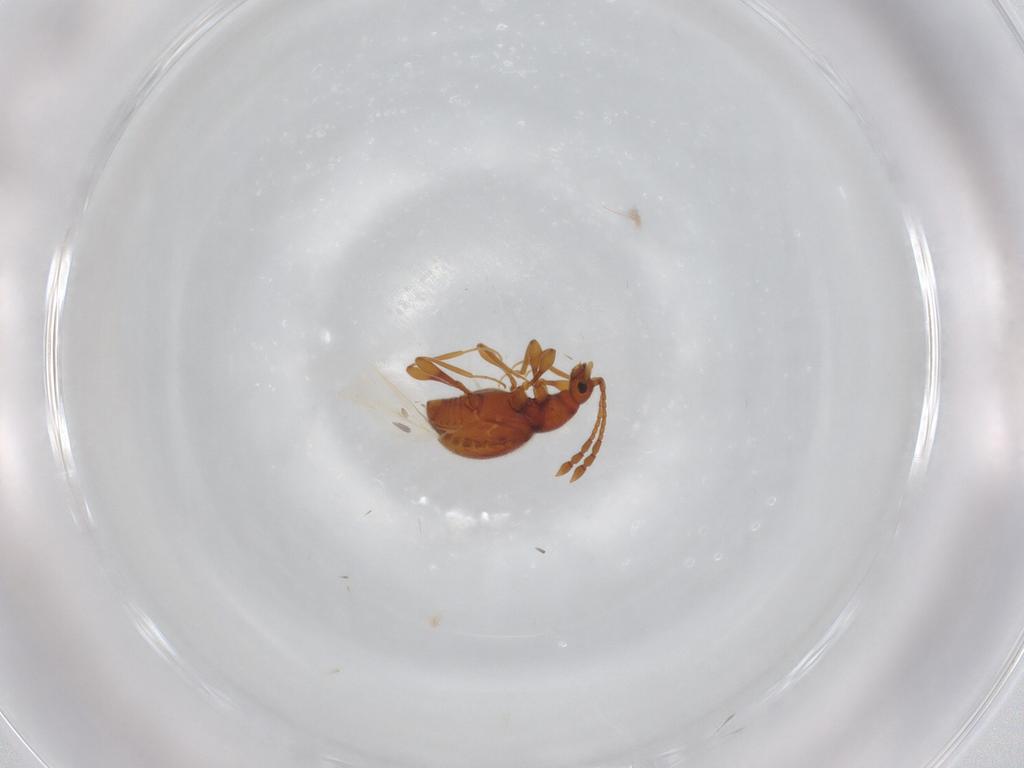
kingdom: Animalia
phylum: Arthropoda
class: Insecta
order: Coleoptera
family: Staphylinidae
